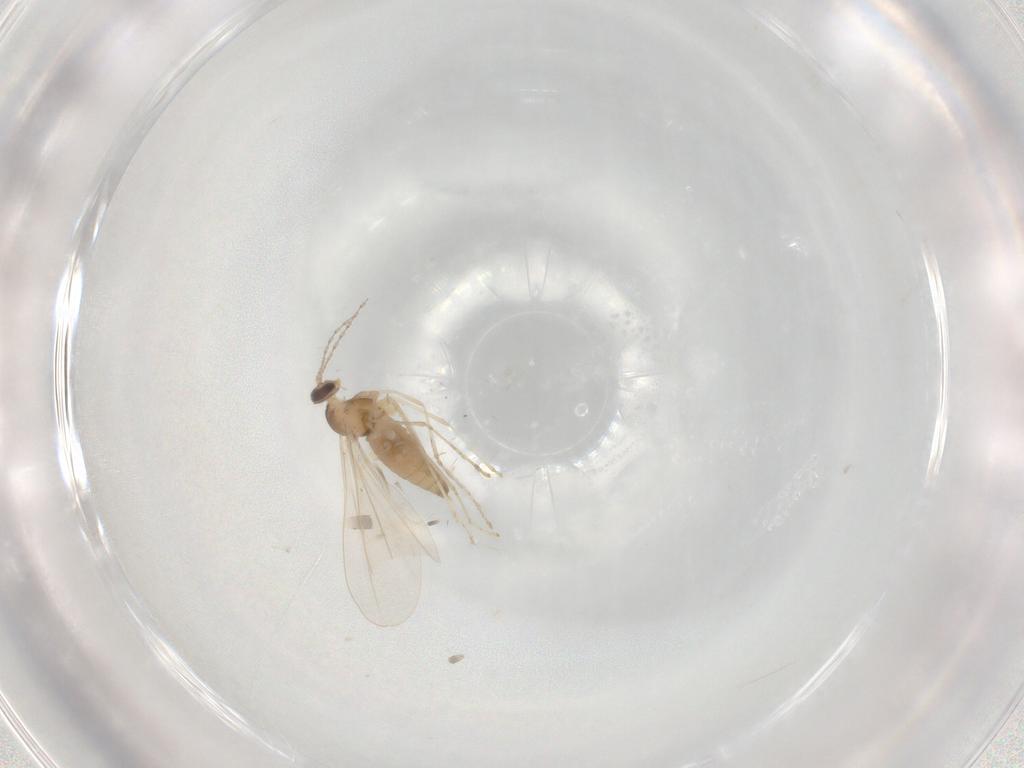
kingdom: Animalia
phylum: Arthropoda
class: Insecta
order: Diptera
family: Cecidomyiidae
